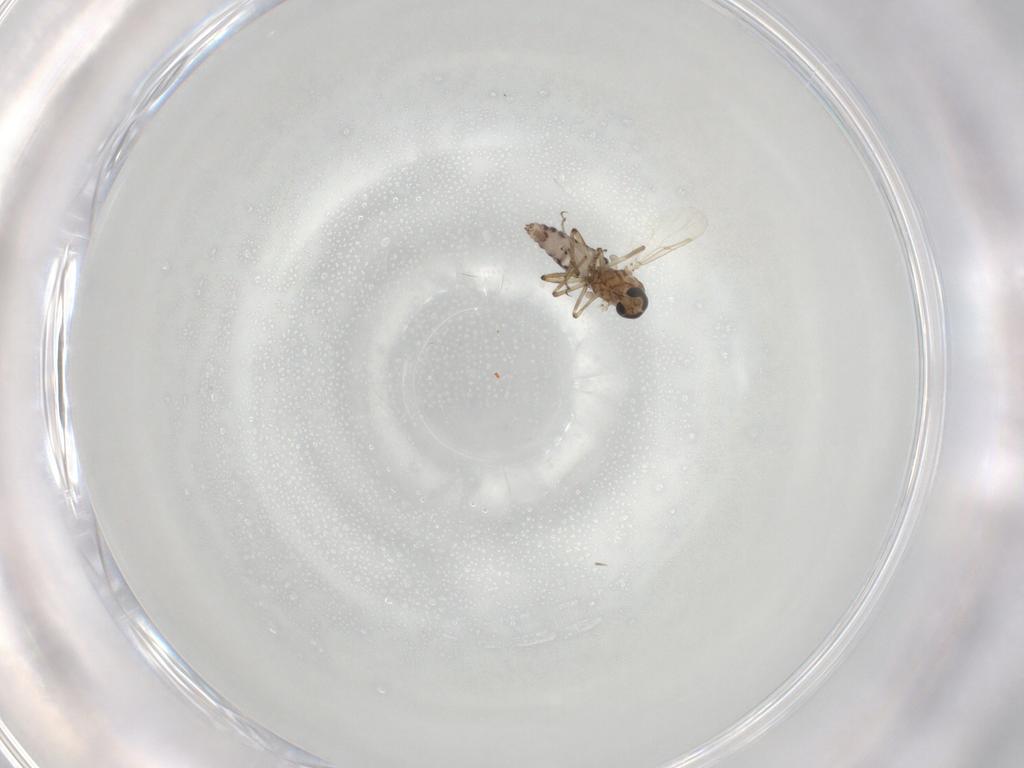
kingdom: Animalia
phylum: Arthropoda
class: Insecta
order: Diptera
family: Ceratopogonidae
